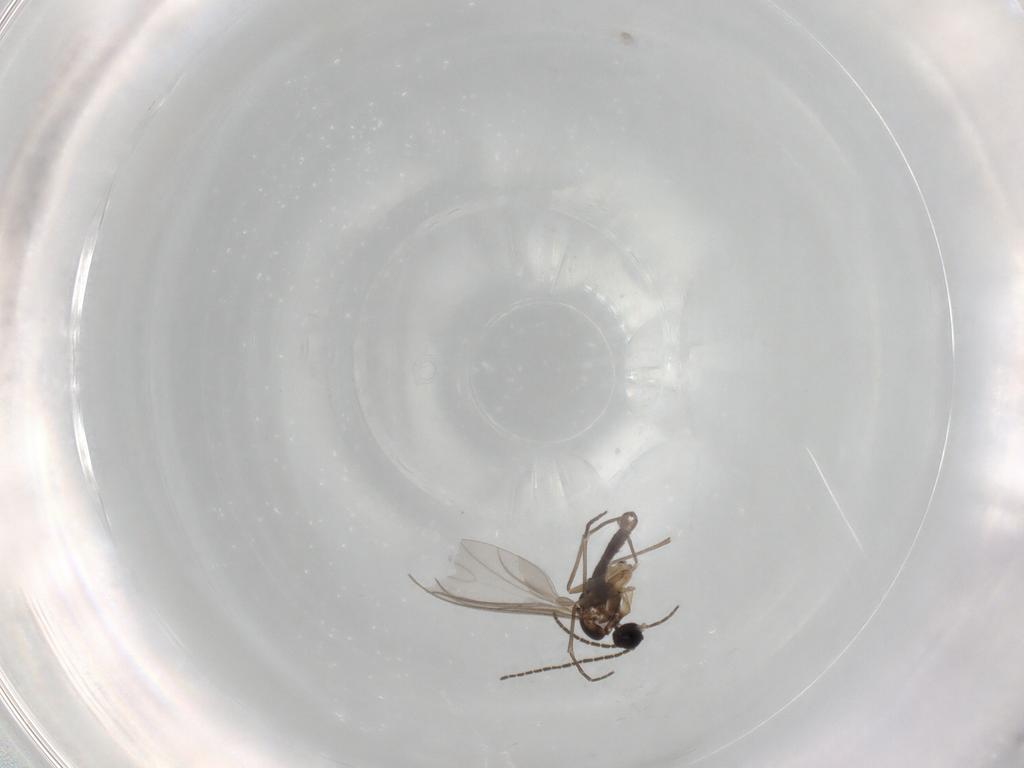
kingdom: Animalia
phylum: Arthropoda
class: Insecta
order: Diptera
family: Sciaridae
